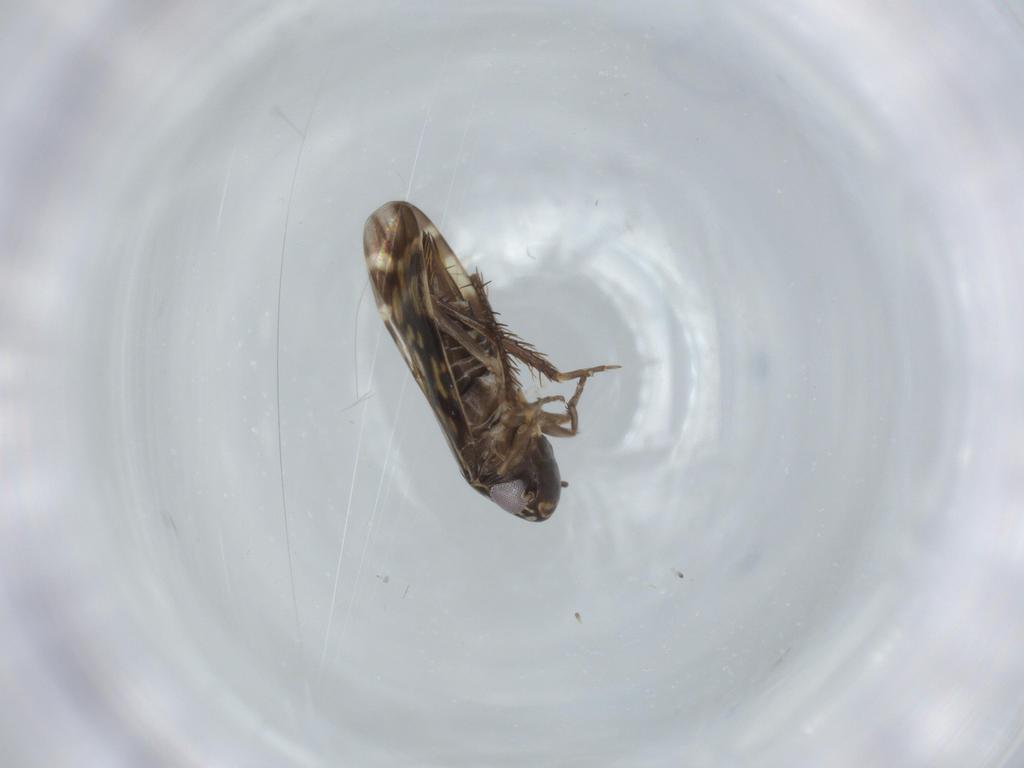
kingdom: Animalia
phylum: Arthropoda
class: Insecta
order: Hemiptera
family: Cicadellidae
